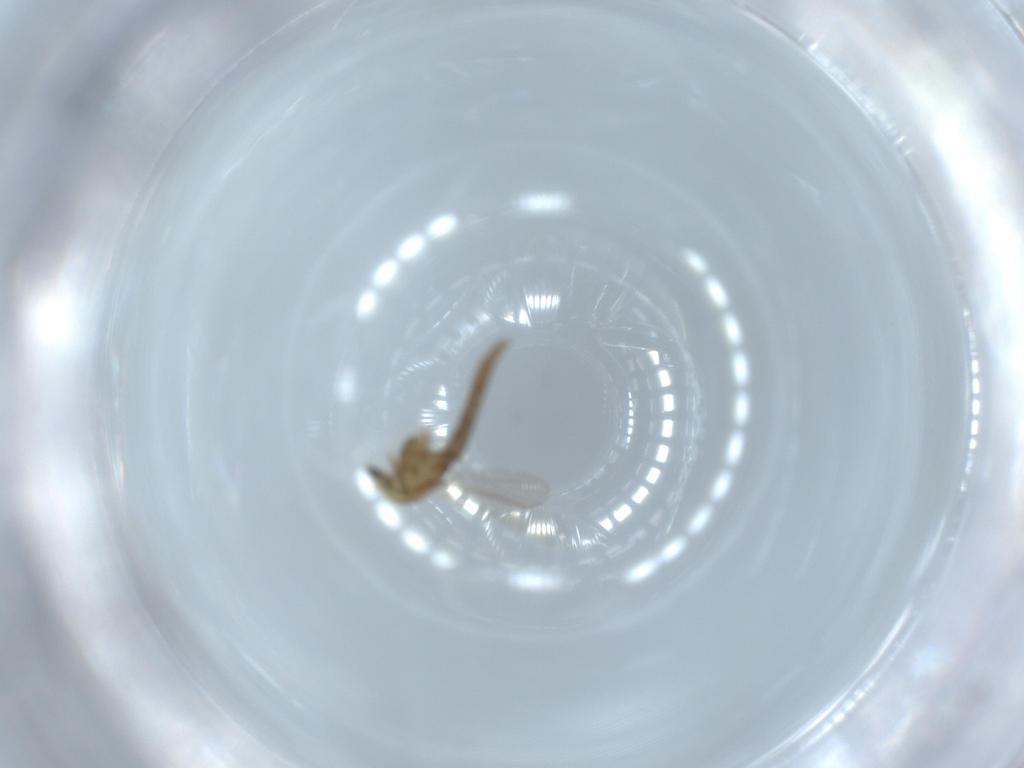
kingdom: Animalia
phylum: Arthropoda
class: Insecta
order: Diptera
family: Chironomidae
